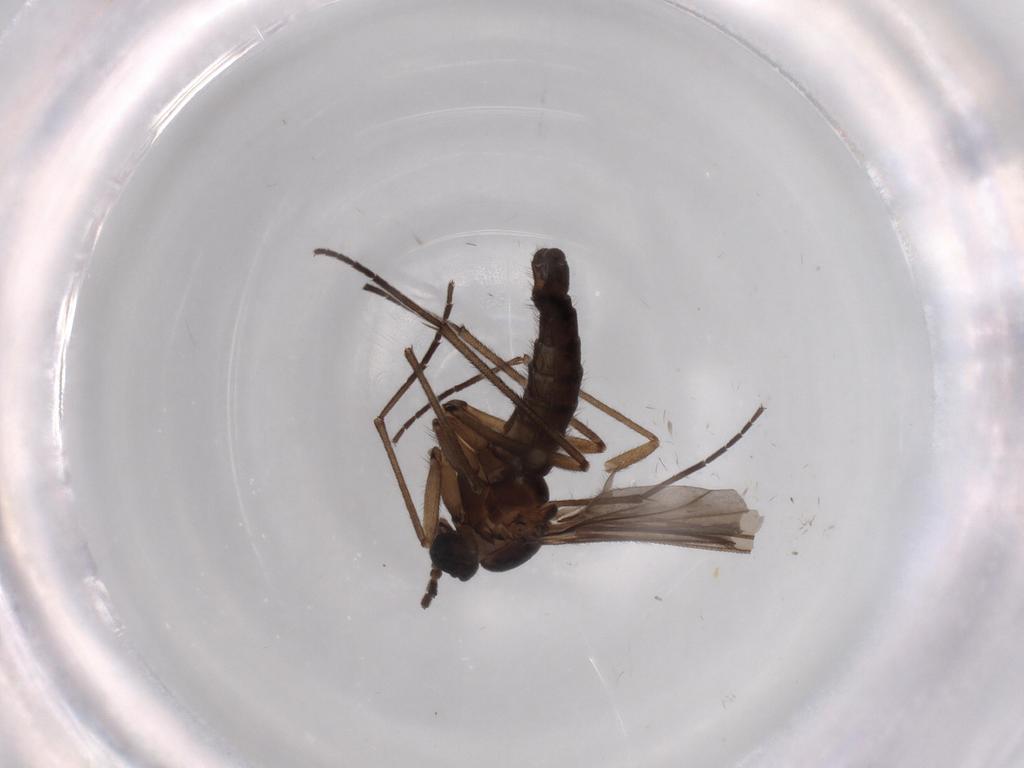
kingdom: Animalia
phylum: Arthropoda
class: Insecta
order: Diptera
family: Sciaridae
